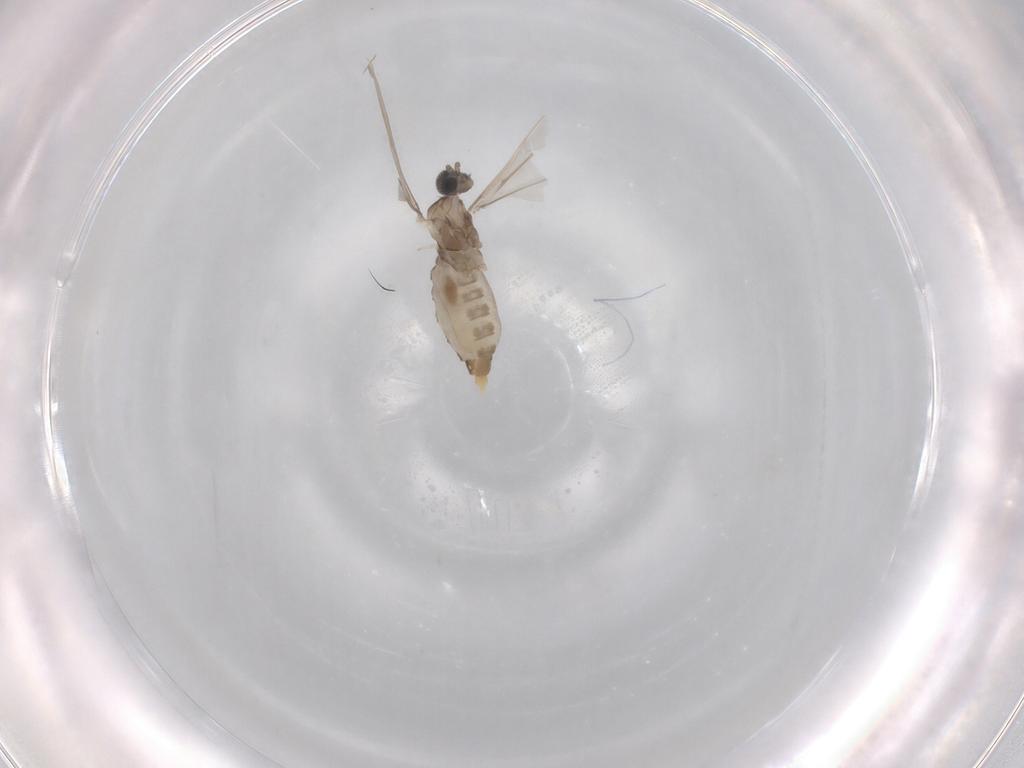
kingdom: Animalia
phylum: Arthropoda
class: Insecta
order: Diptera
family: Cecidomyiidae
